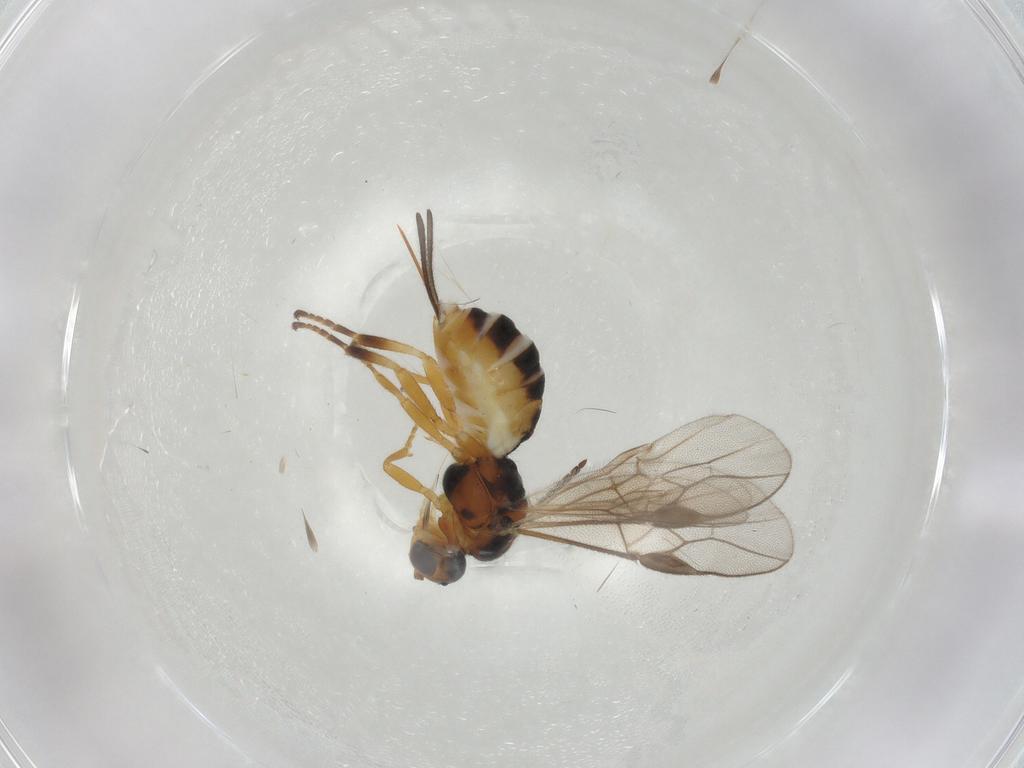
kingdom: Animalia
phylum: Arthropoda
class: Insecta
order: Hymenoptera
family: Braconidae
